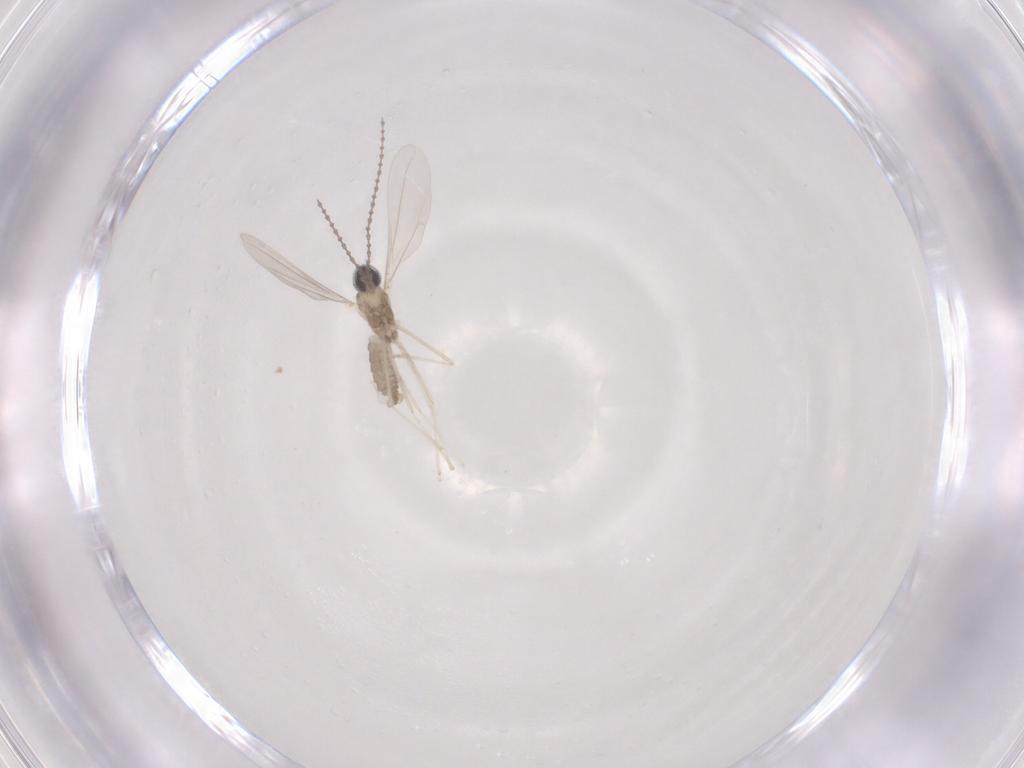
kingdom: Animalia
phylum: Arthropoda
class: Insecta
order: Diptera
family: Cecidomyiidae
